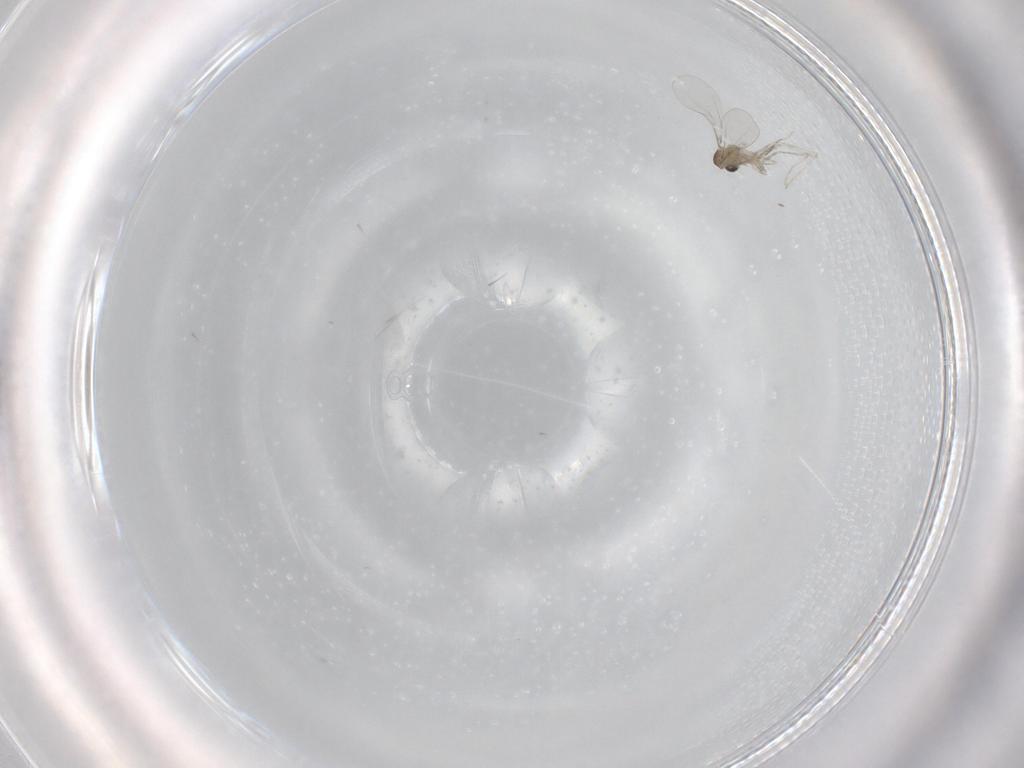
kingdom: Animalia
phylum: Arthropoda
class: Insecta
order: Diptera
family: Cecidomyiidae
